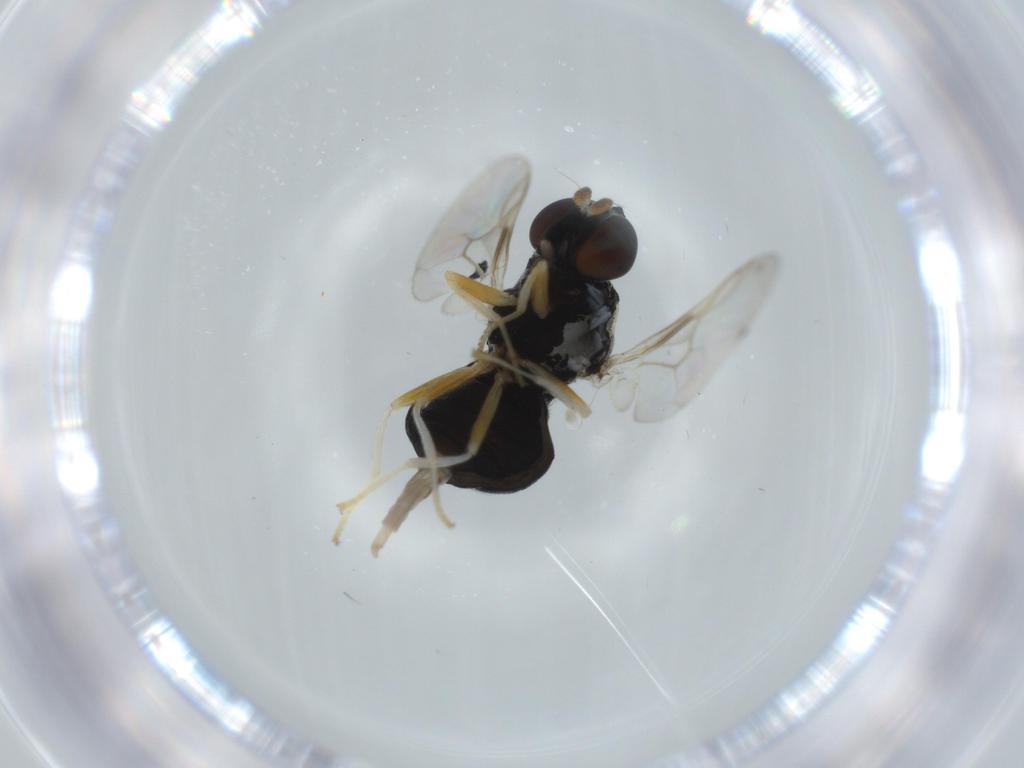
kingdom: Animalia
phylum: Arthropoda
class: Insecta
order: Diptera
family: Stratiomyidae
